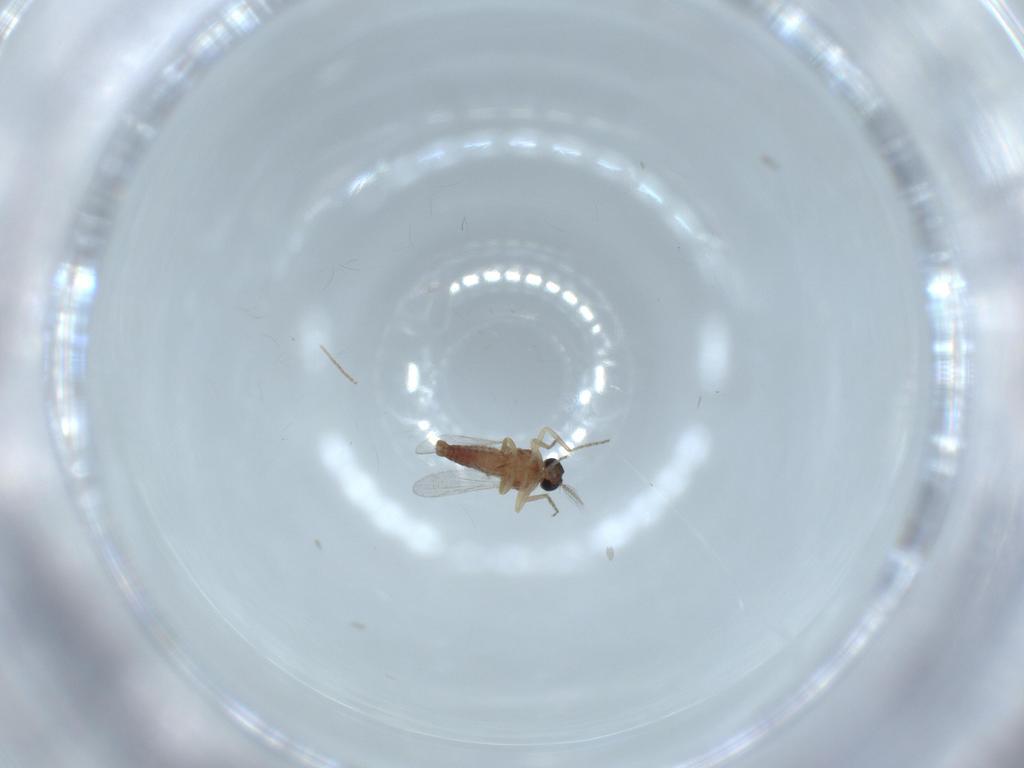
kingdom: Animalia
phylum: Arthropoda
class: Insecta
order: Diptera
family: Ceratopogonidae
